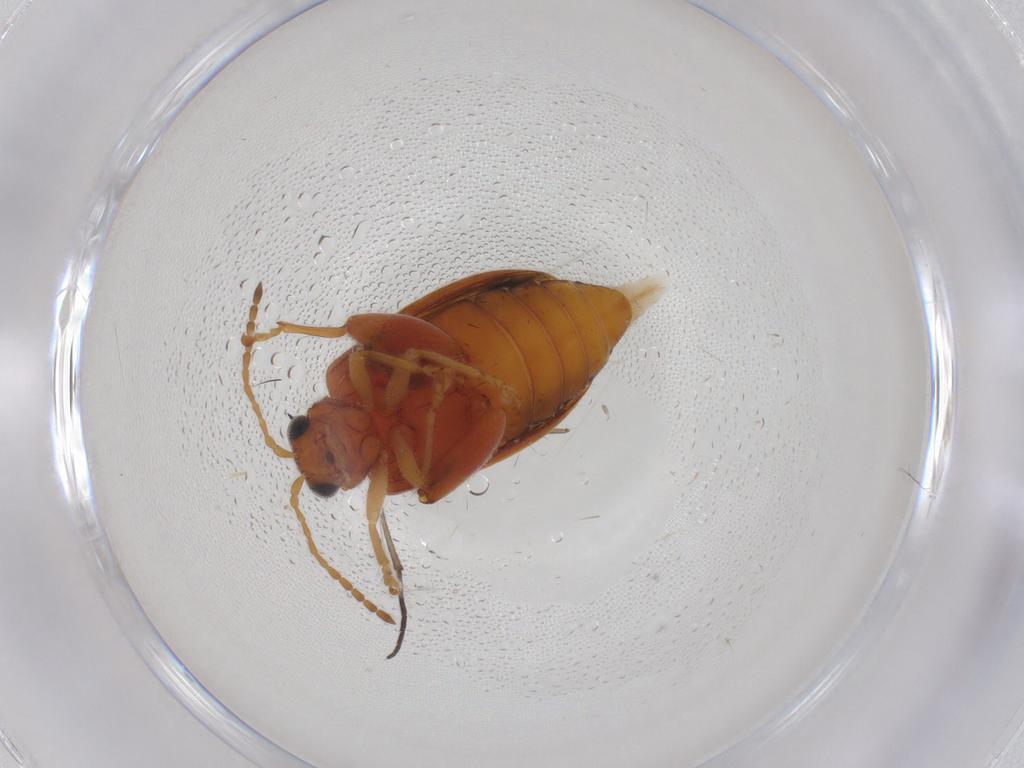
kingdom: Animalia
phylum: Arthropoda
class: Insecta
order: Coleoptera
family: Chrysomelidae
